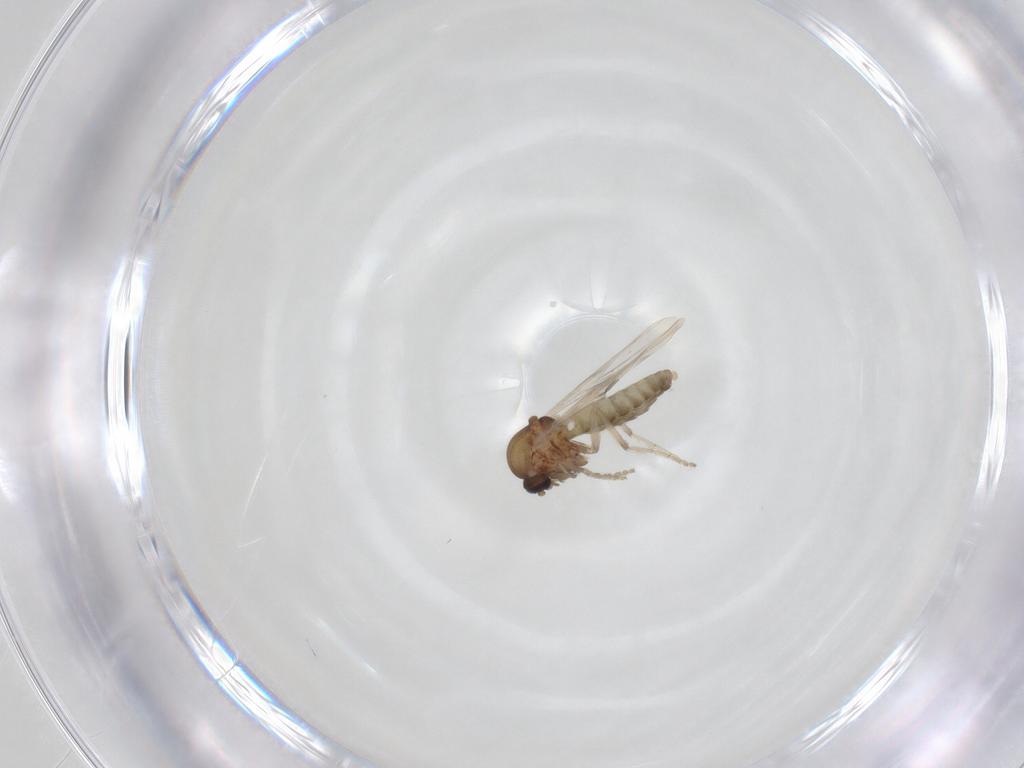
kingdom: Animalia
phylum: Arthropoda
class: Insecta
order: Diptera
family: Ceratopogonidae
